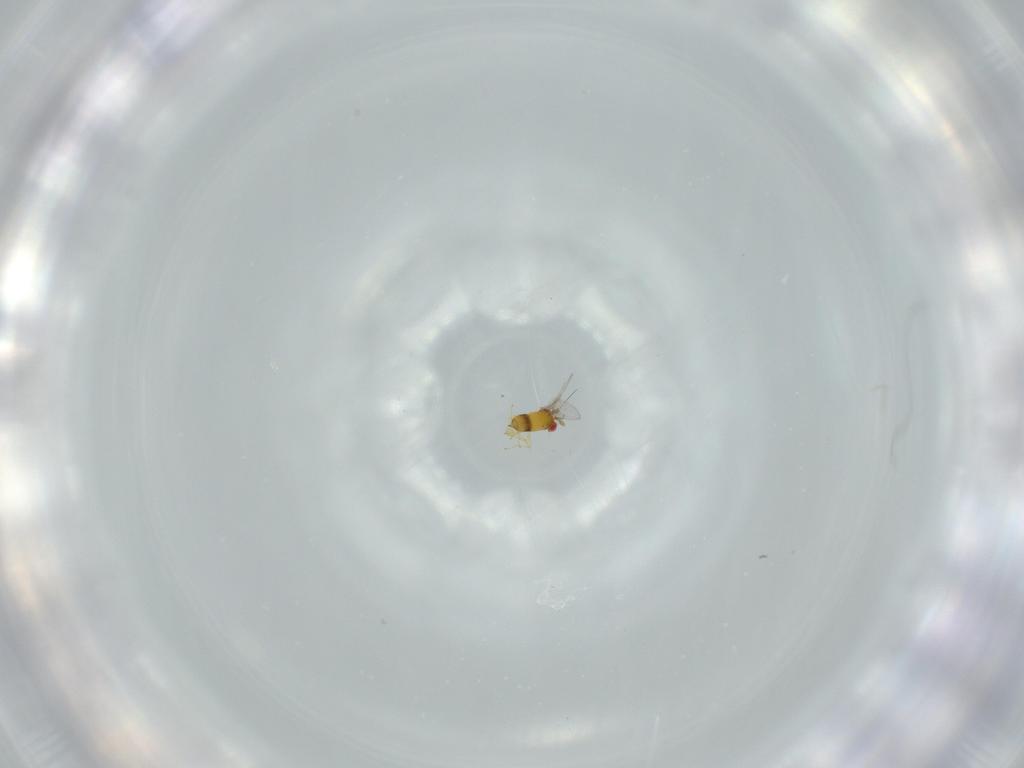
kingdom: Animalia
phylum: Arthropoda
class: Insecta
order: Hymenoptera
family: Trichogrammatidae
